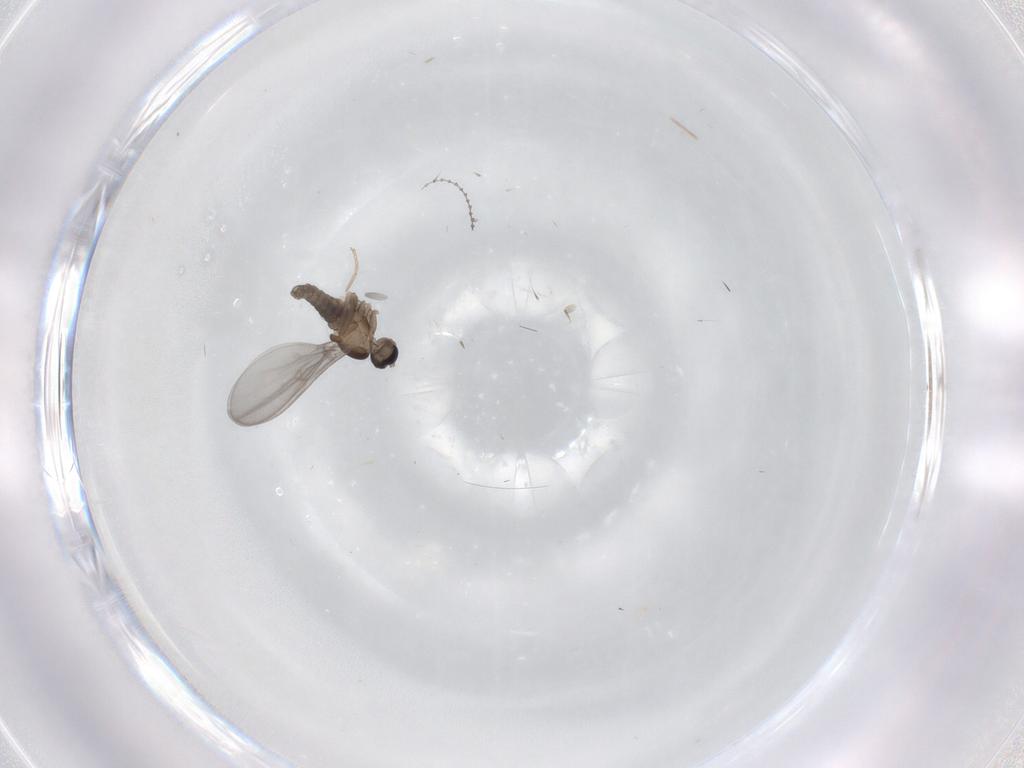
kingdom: Animalia
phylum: Arthropoda
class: Insecta
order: Diptera
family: Cecidomyiidae
